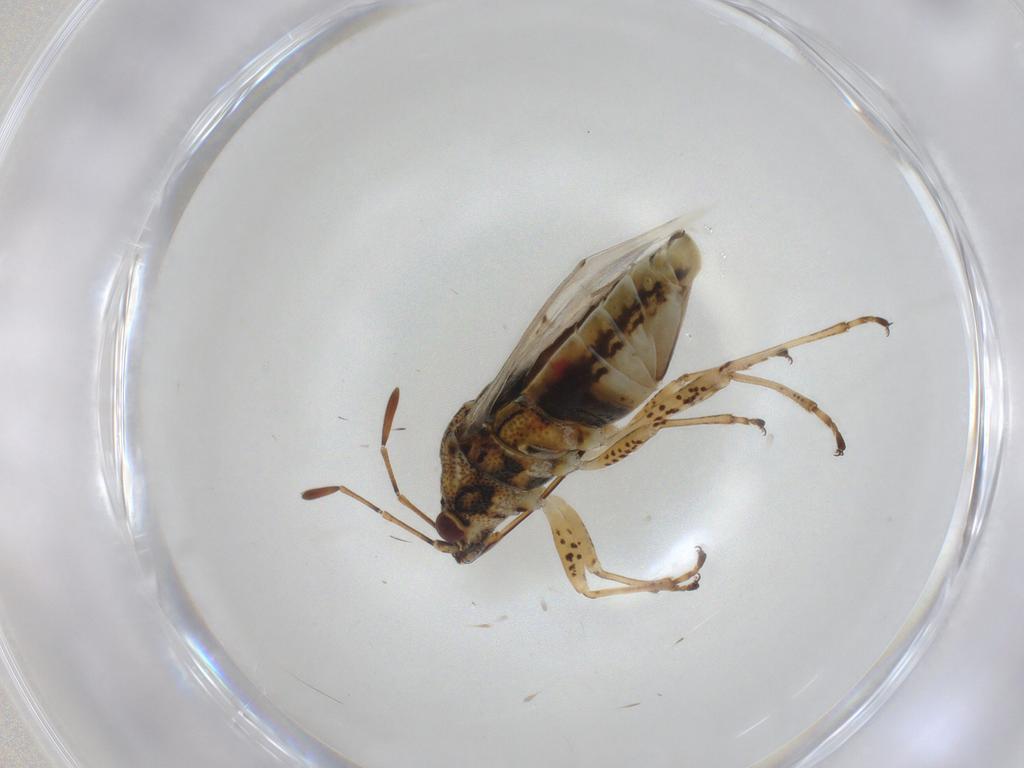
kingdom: Animalia
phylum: Arthropoda
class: Insecta
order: Hemiptera
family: Lygaeidae
